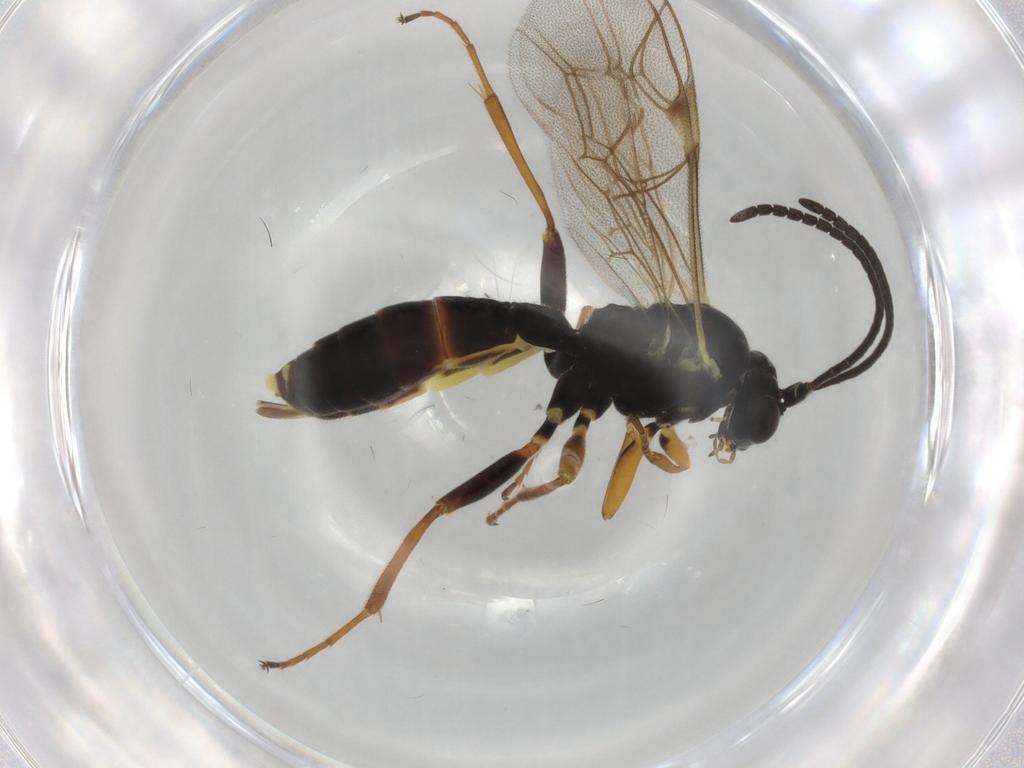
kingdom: Animalia
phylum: Arthropoda
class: Insecta
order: Hymenoptera
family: Ichneumonidae
